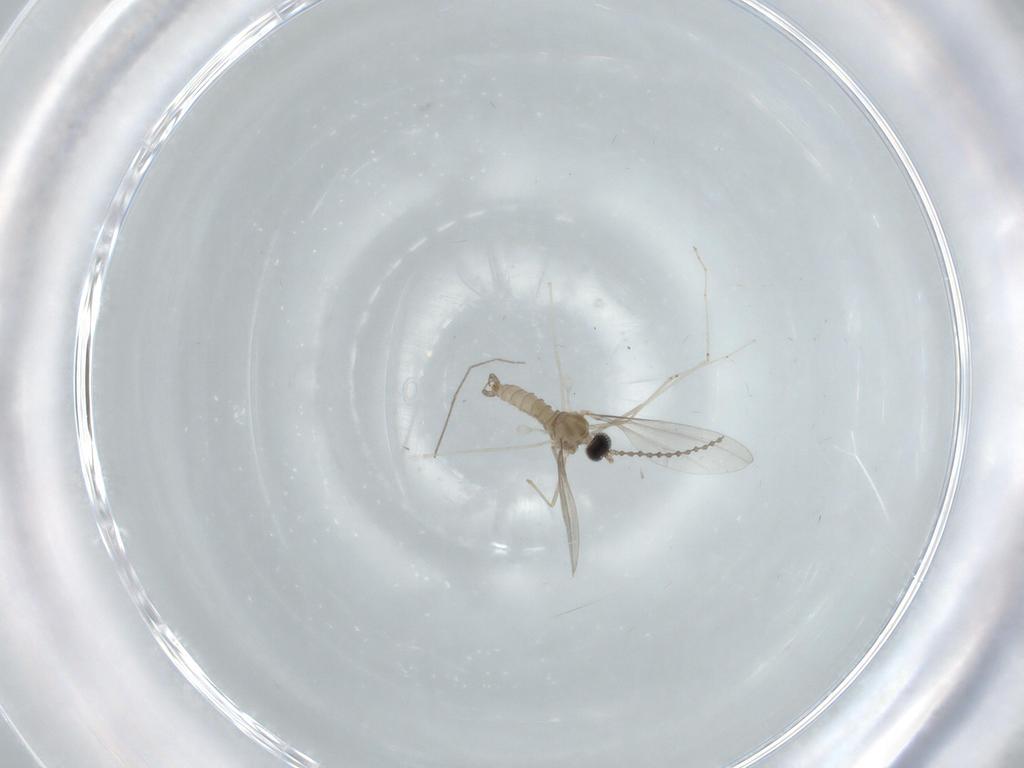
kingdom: Animalia
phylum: Arthropoda
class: Insecta
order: Diptera
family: Cecidomyiidae
